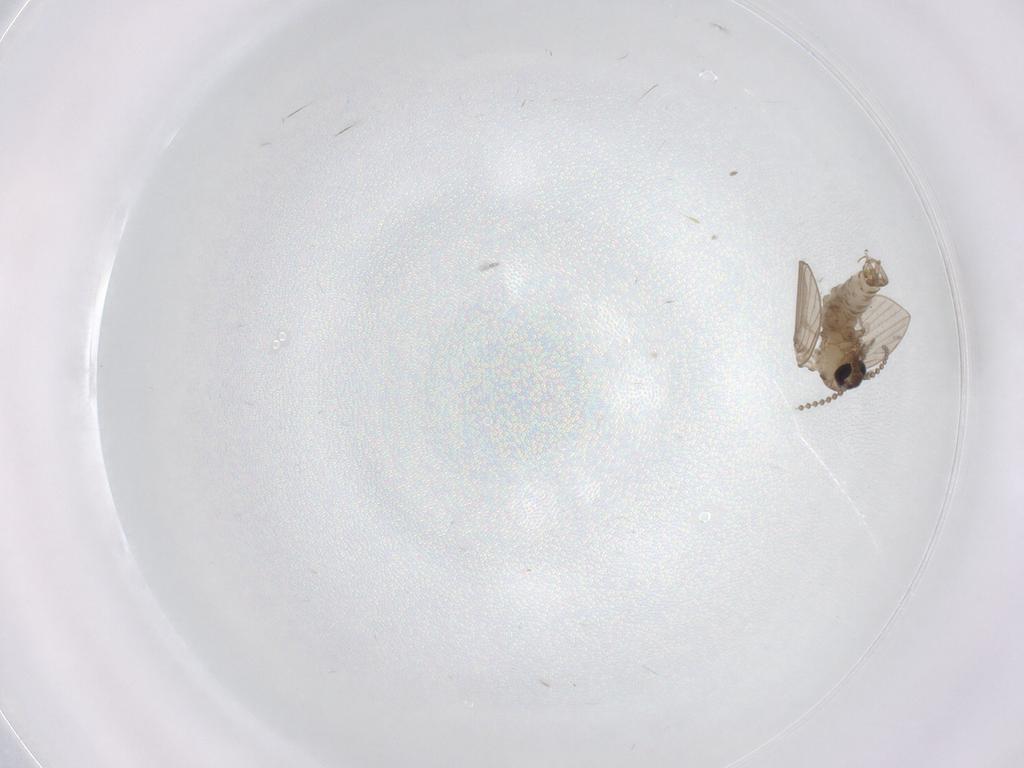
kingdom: Animalia
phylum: Arthropoda
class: Insecta
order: Diptera
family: Psychodidae
